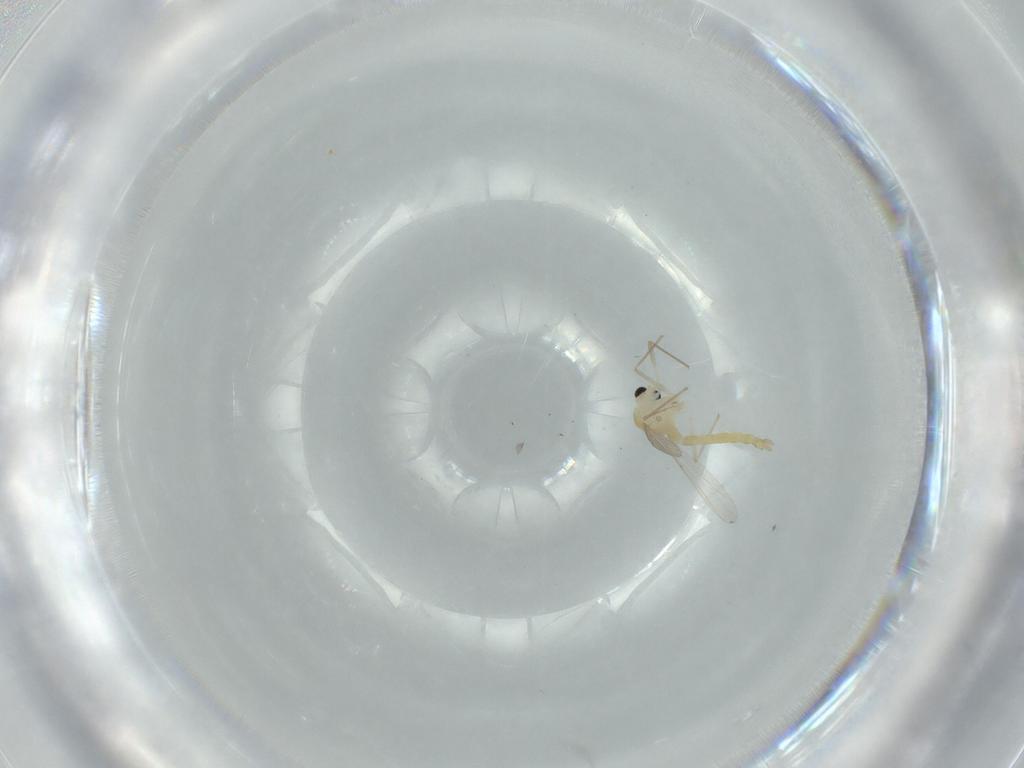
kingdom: Animalia
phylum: Arthropoda
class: Insecta
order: Diptera
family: Chironomidae
